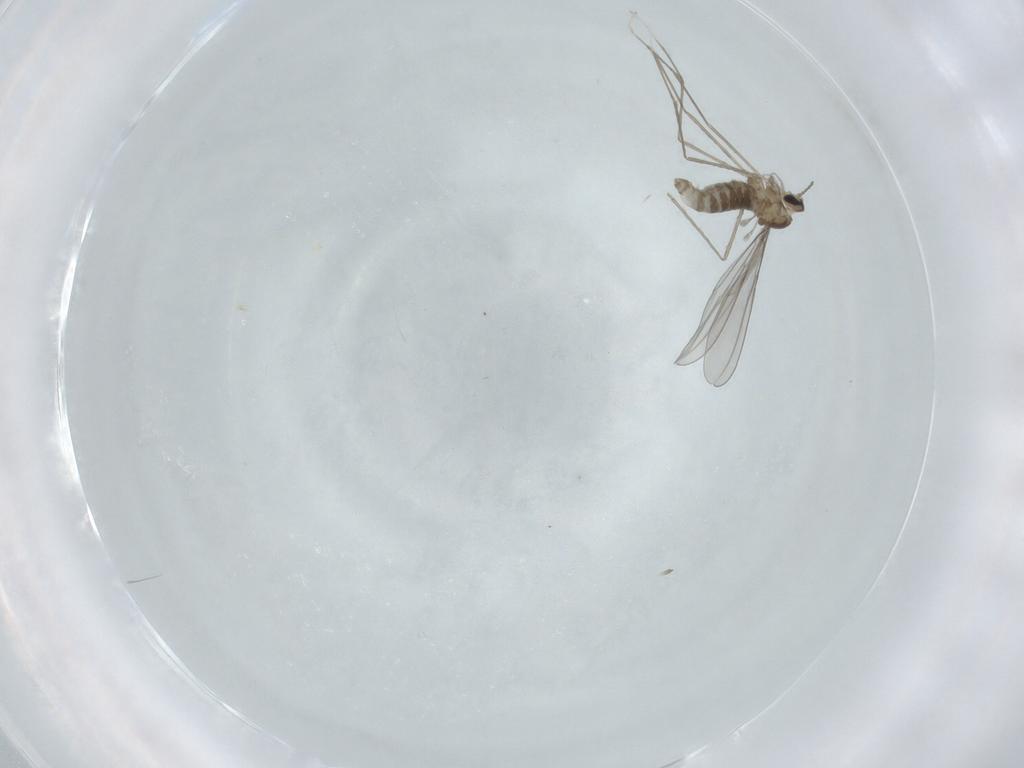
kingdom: Animalia
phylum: Arthropoda
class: Insecta
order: Diptera
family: Cecidomyiidae
